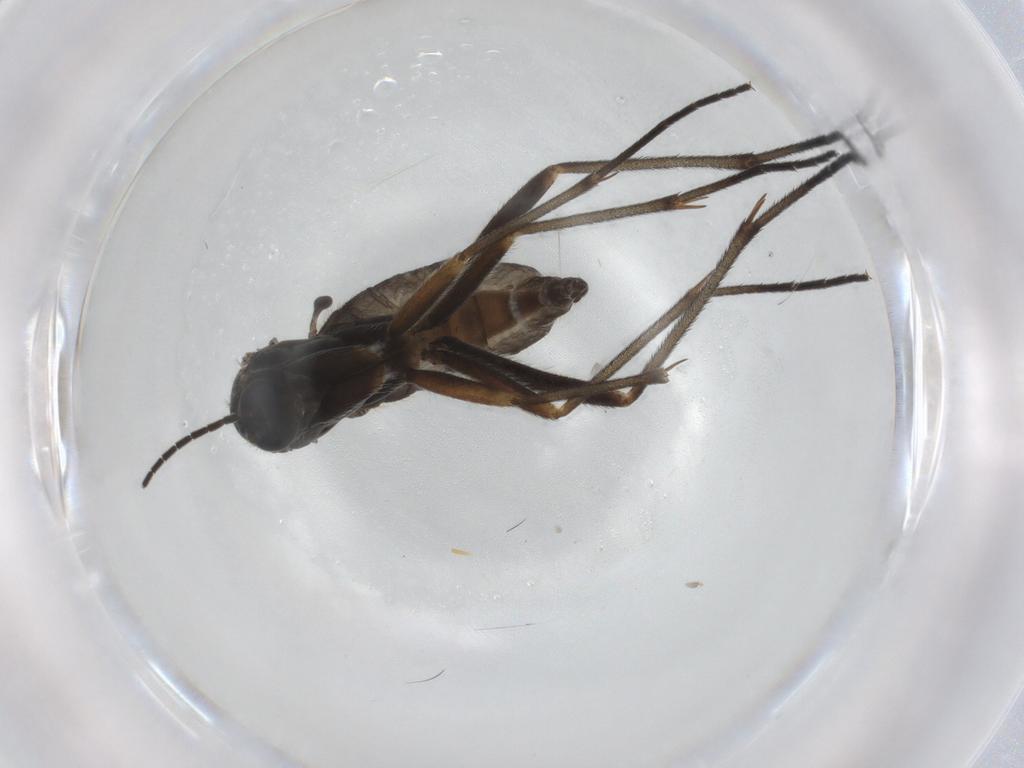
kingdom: Animalia
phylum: Arthropoda
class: Insecta
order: Diptera
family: Sciaridae
